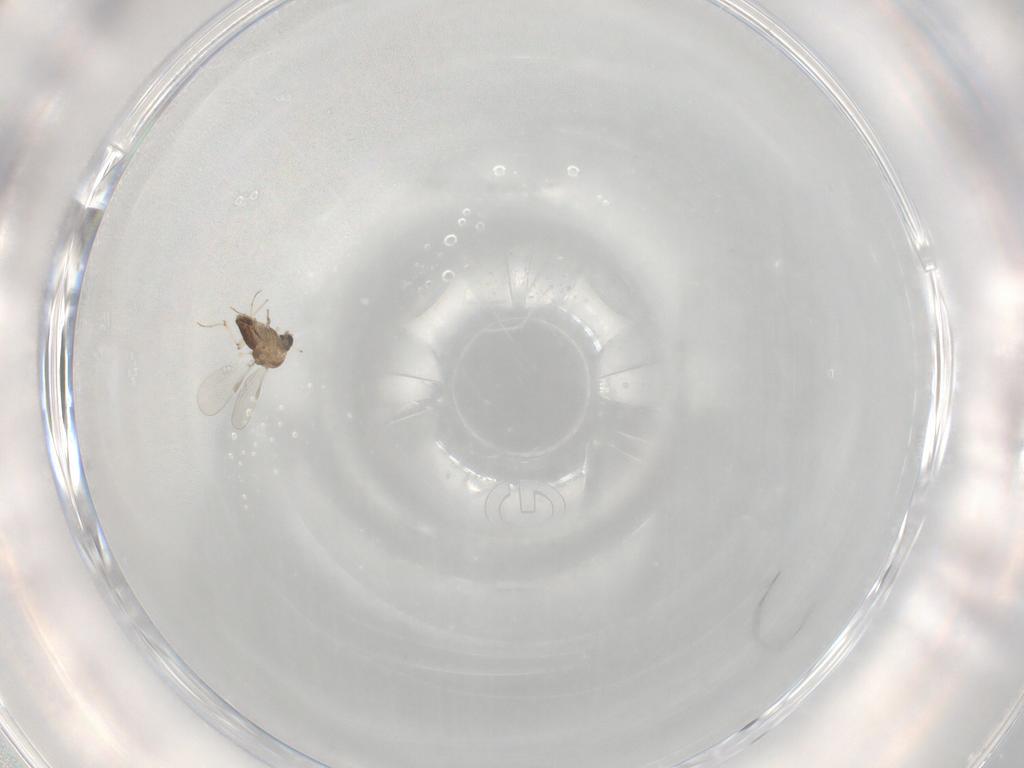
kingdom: Animalia
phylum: Arthropoda
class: Insecta
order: Diptera
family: Chironomidae
